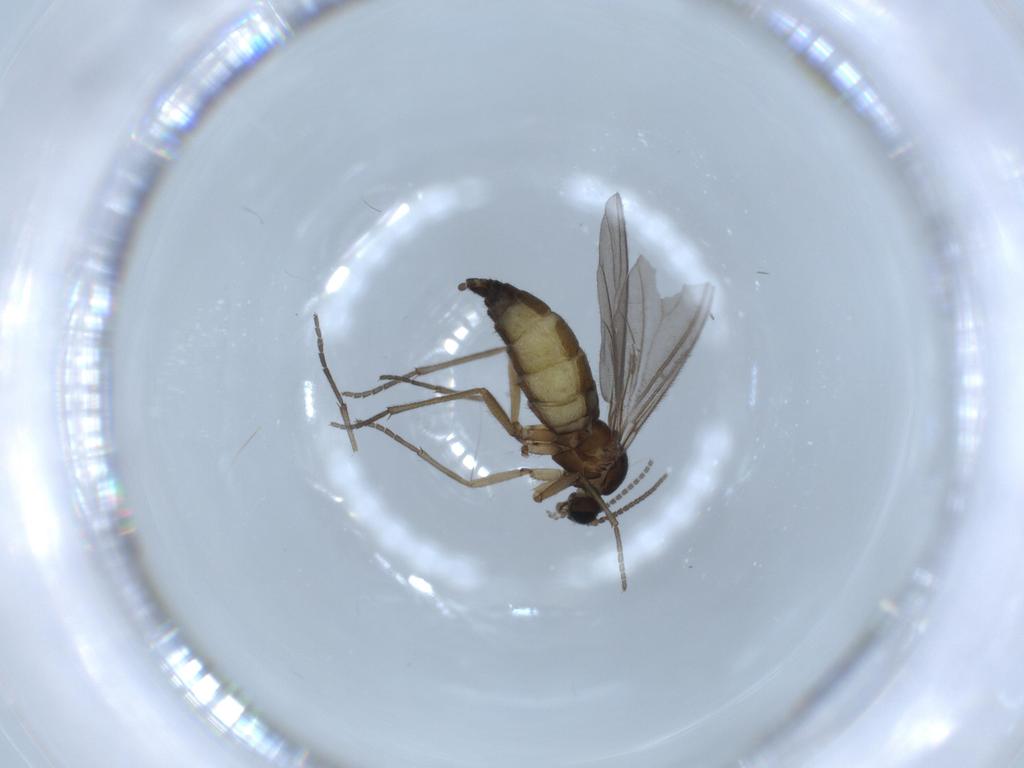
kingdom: Animalia
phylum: Arthropoda
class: Insecta
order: Diptera
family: Sciaridae
